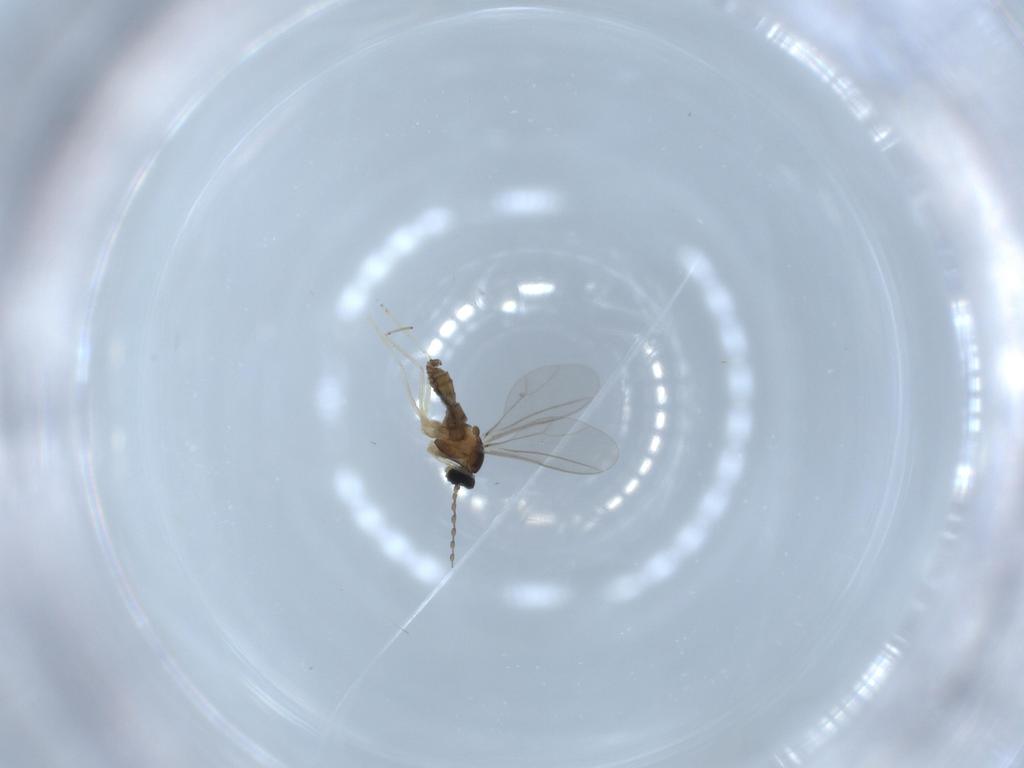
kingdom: Animalia
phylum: Arthropoda
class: Insecta
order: Diptera
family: Cecidomyiidae
